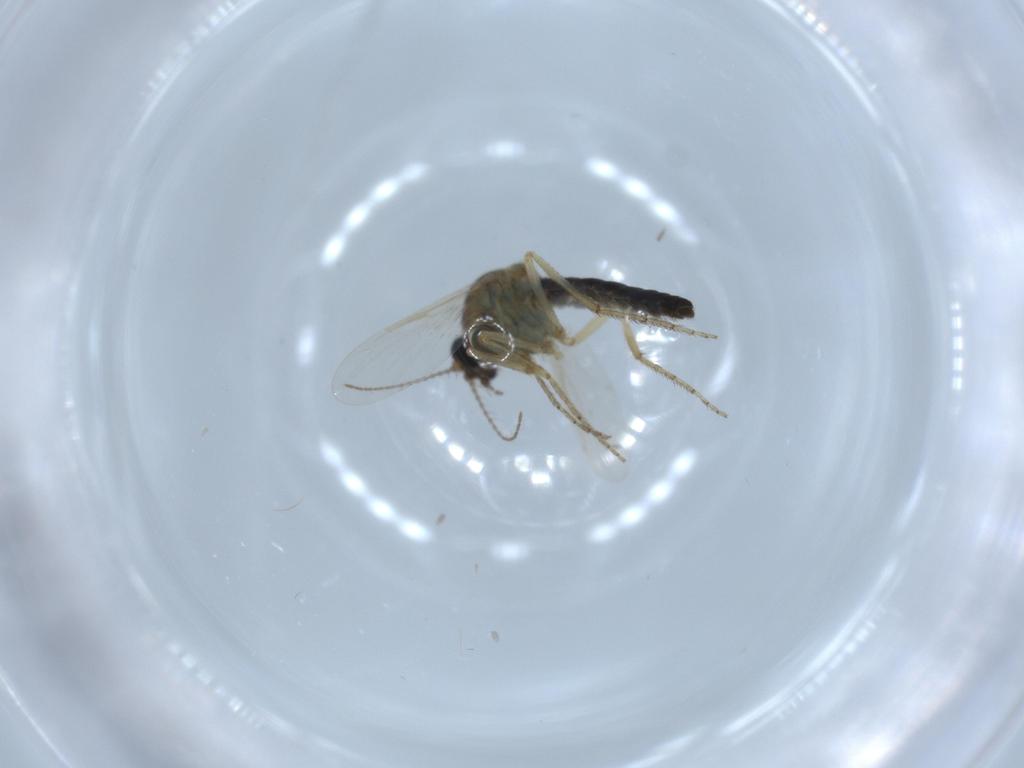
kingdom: Animalia
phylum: Arthropoda
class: Insecta
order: Diptera
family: Ceratopogonidae
